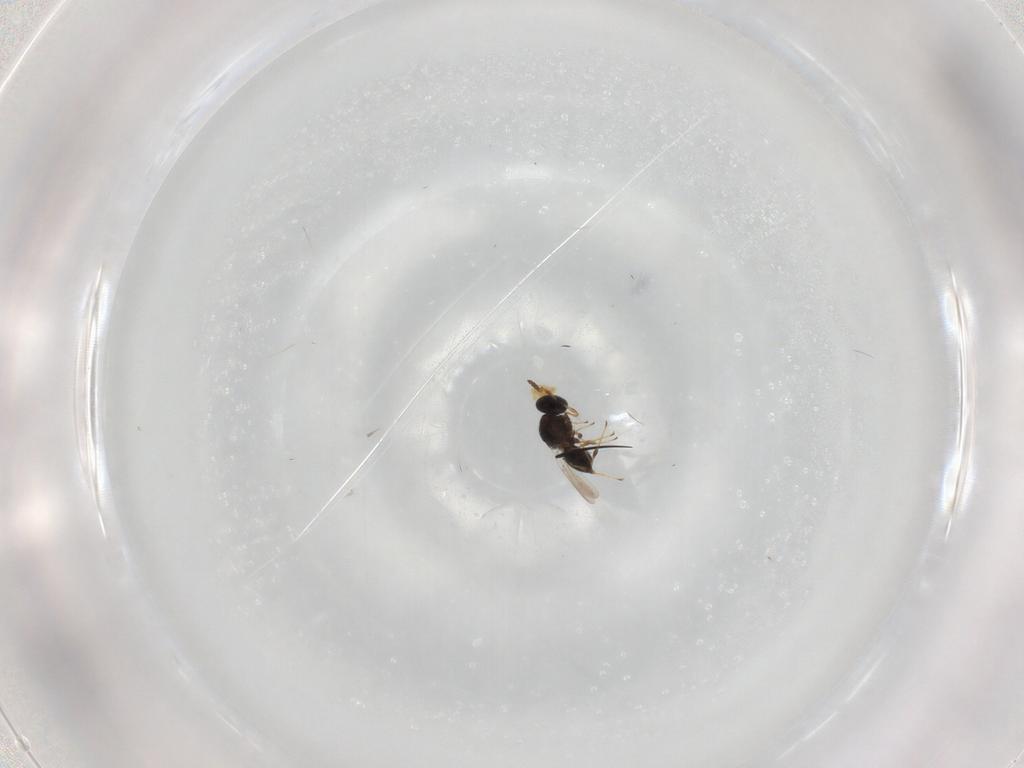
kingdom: Animalia
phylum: Arthropoda
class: Insecta
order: Hymenoptera
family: Platygastridae
